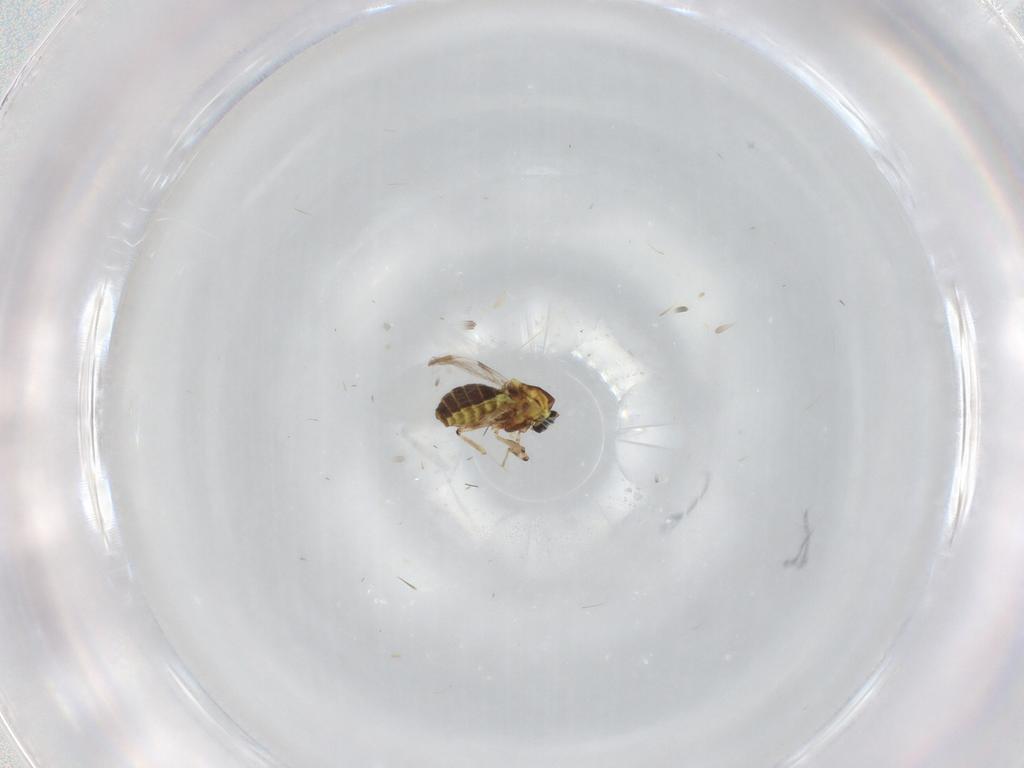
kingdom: Animalia
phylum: Arthropoda
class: Insecta
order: Diptera
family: Ceratopogonidae
